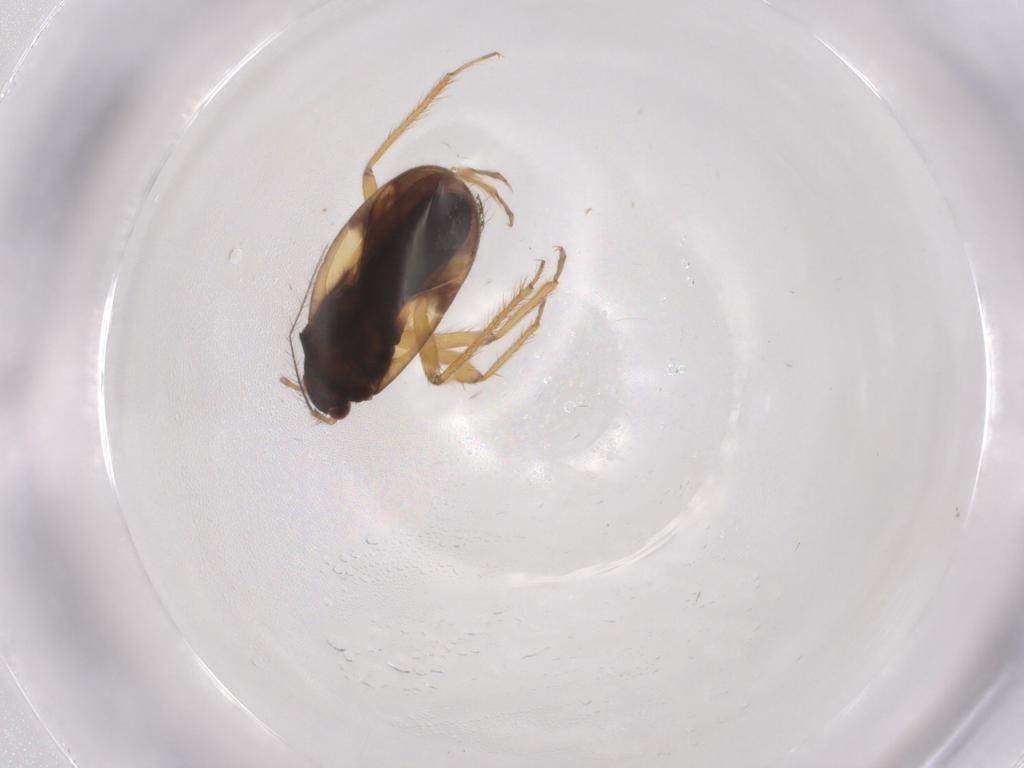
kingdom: Animalia
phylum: Arthropoda
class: Insecta
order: Hemiptera
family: Ceratocombidae
